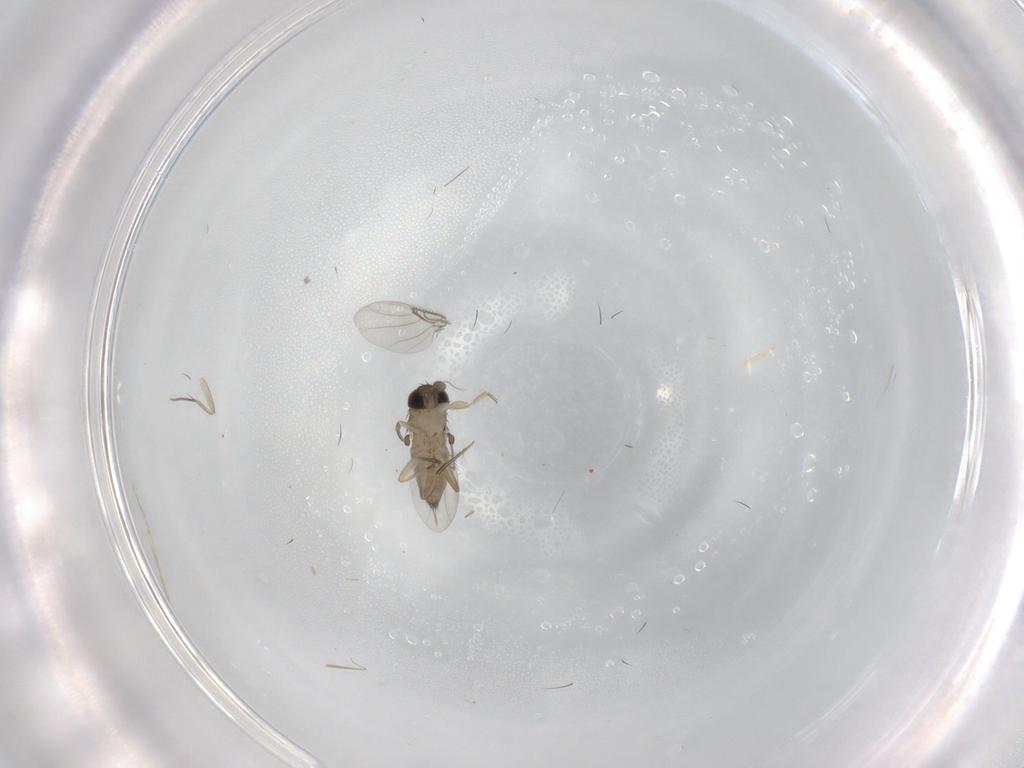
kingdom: Animalia
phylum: Arthropoda
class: Insecta
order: Diptera
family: Phoridae
